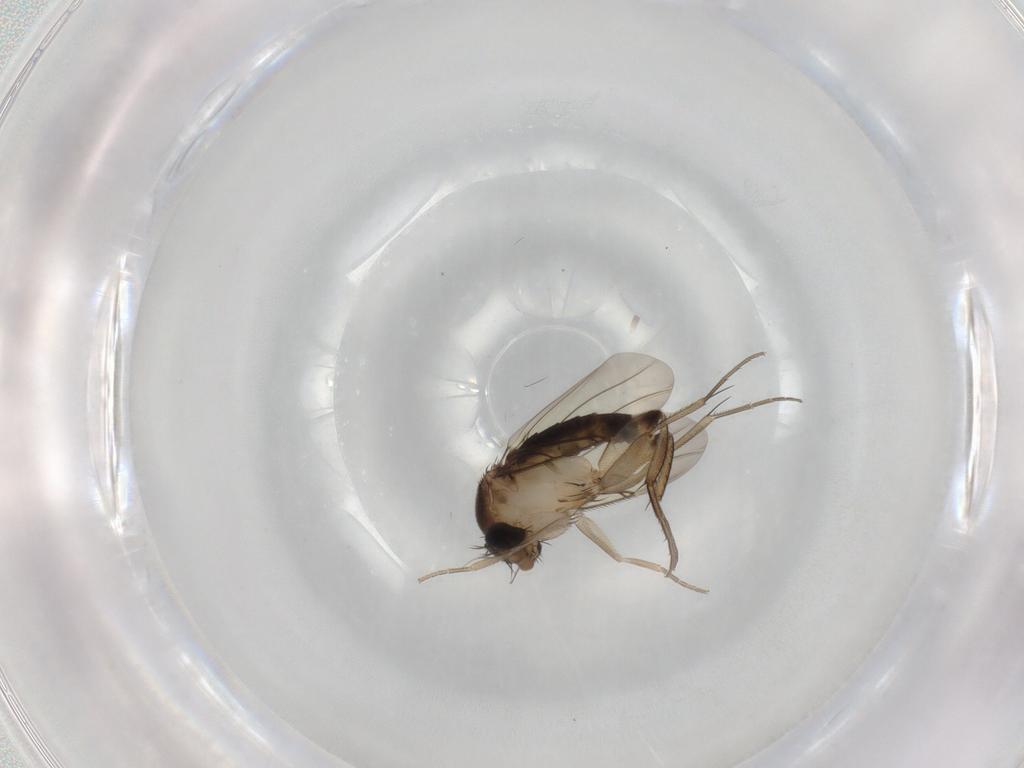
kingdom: Animalia
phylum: Arthropoda
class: Insecta
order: Diptera
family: Phoridae
